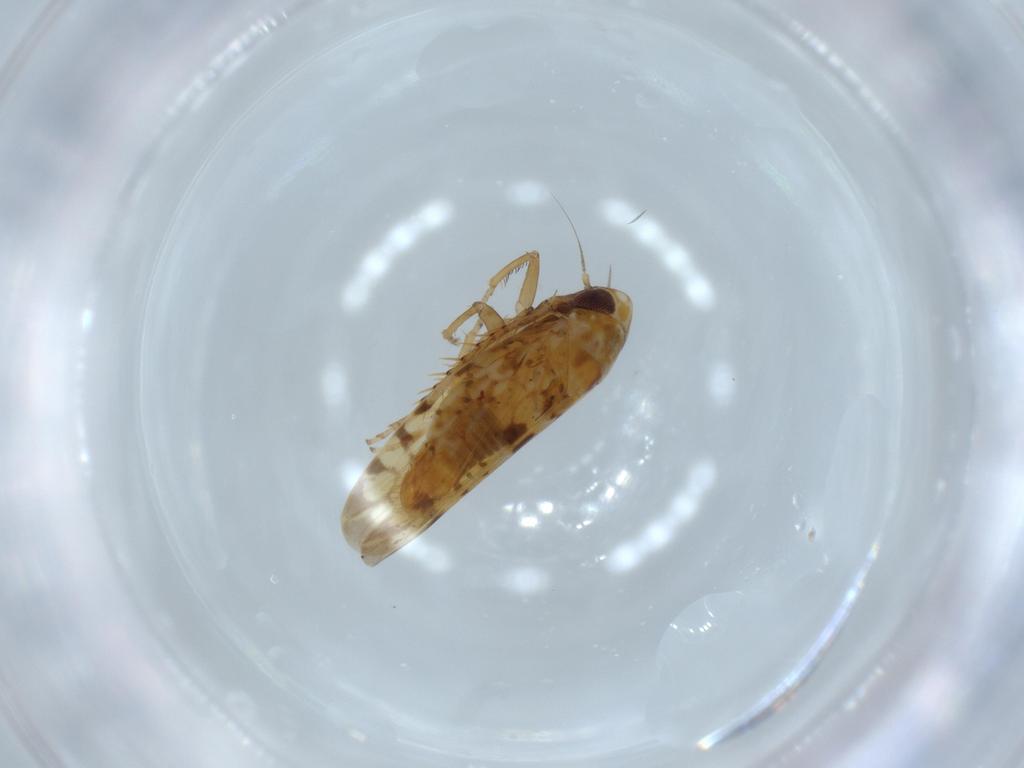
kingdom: Animalia
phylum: Arthropoda
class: Insecta
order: Hemiptera
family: Cicadellidae
